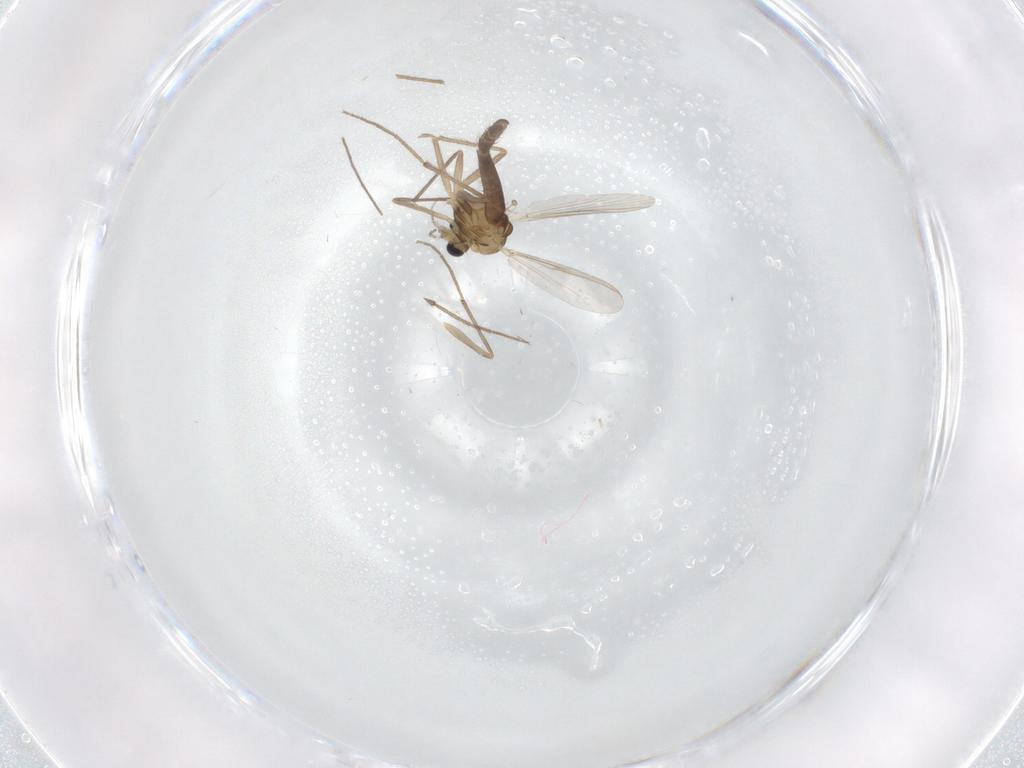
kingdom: Animalia
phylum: Arthropoda
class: Insecta
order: Diptera
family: Chironomidae
